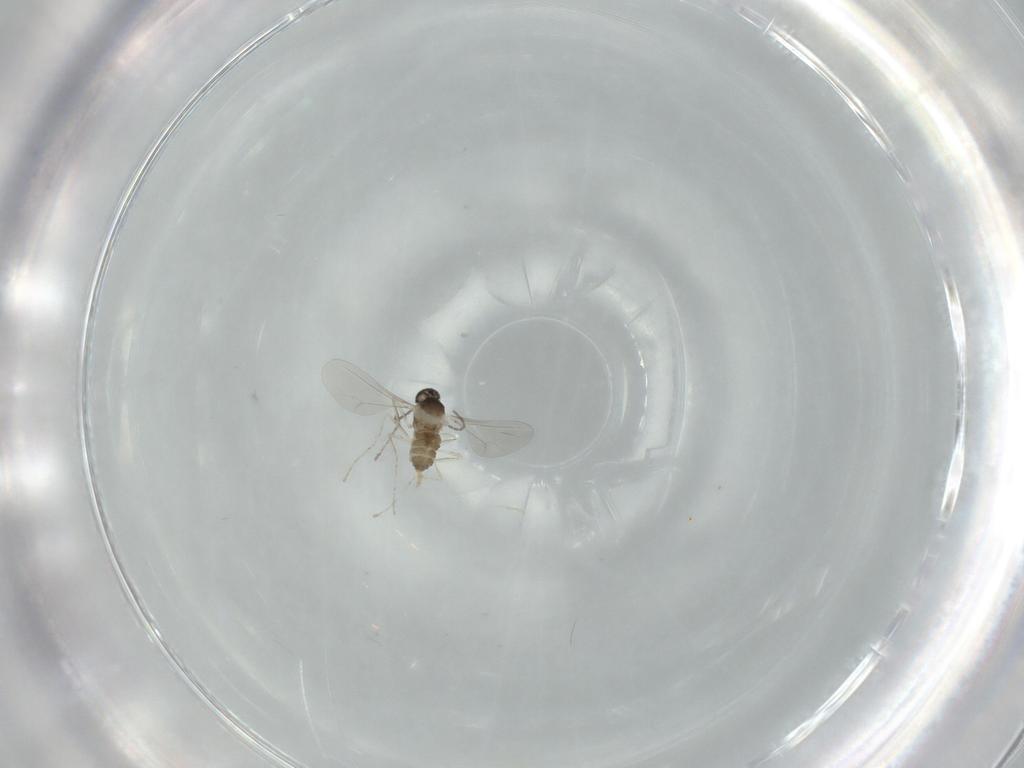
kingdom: Animalia
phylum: Arthropoda
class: Insecta
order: Diptera
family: Cecidomyiidae
